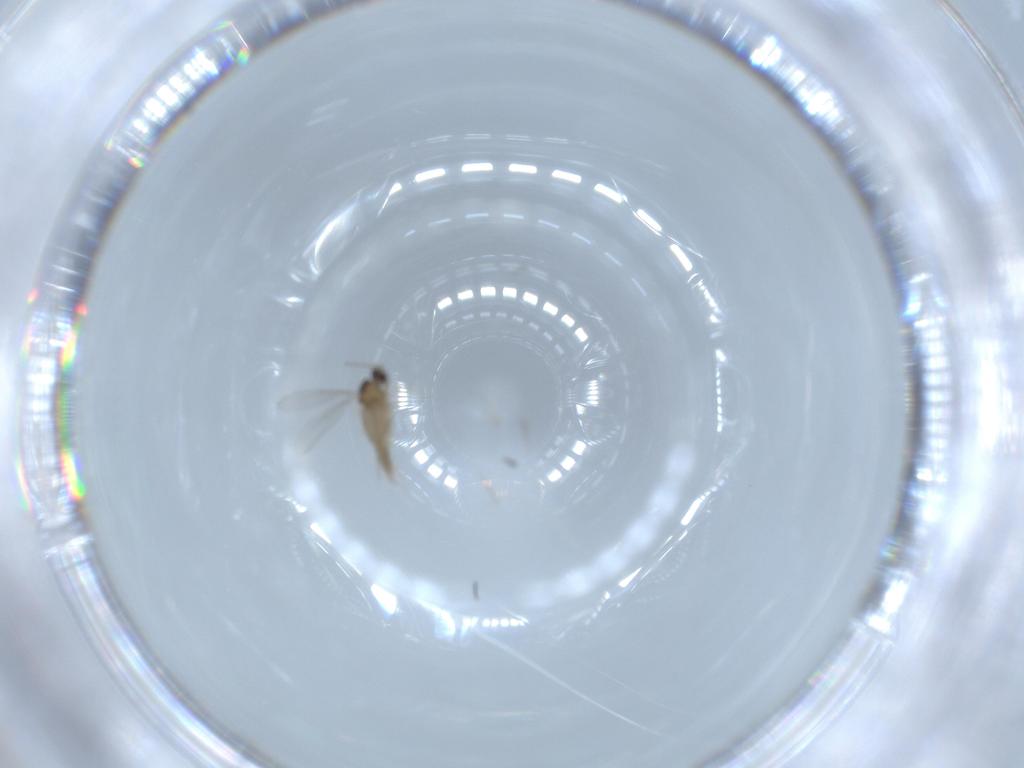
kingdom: Animalia
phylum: Arthropoda
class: Insecta
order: Diptera
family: Cecidomyiidae
